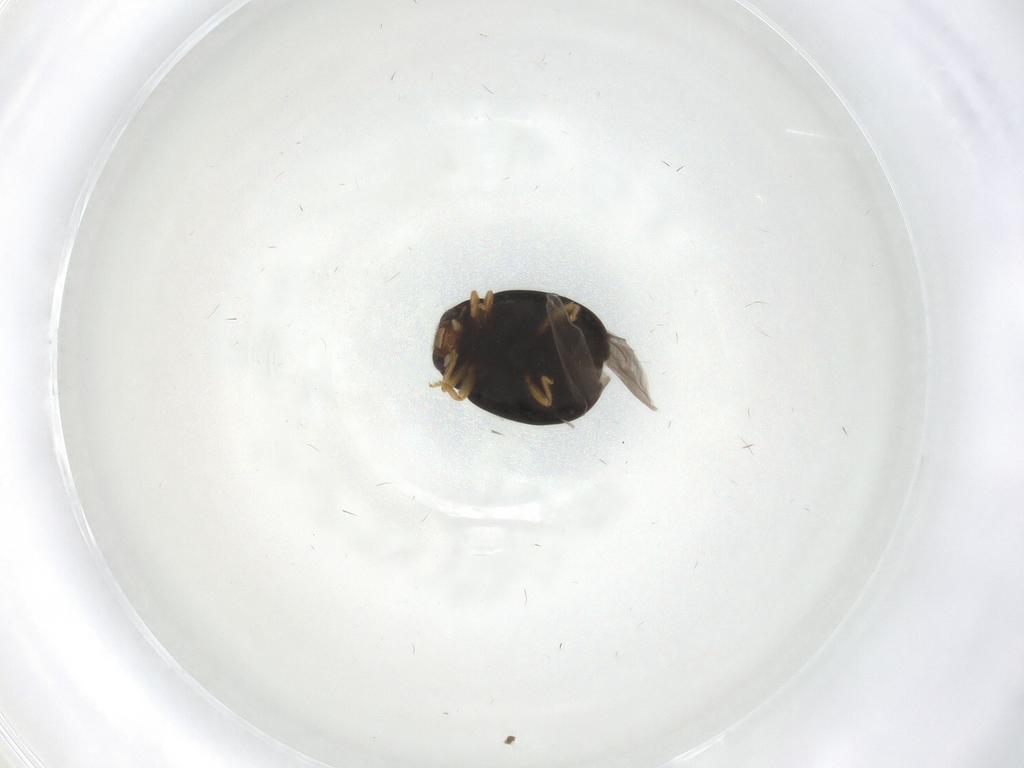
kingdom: Animalia
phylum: Arthropoda
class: Insecta
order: Coleoptera
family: Coccinellidae
